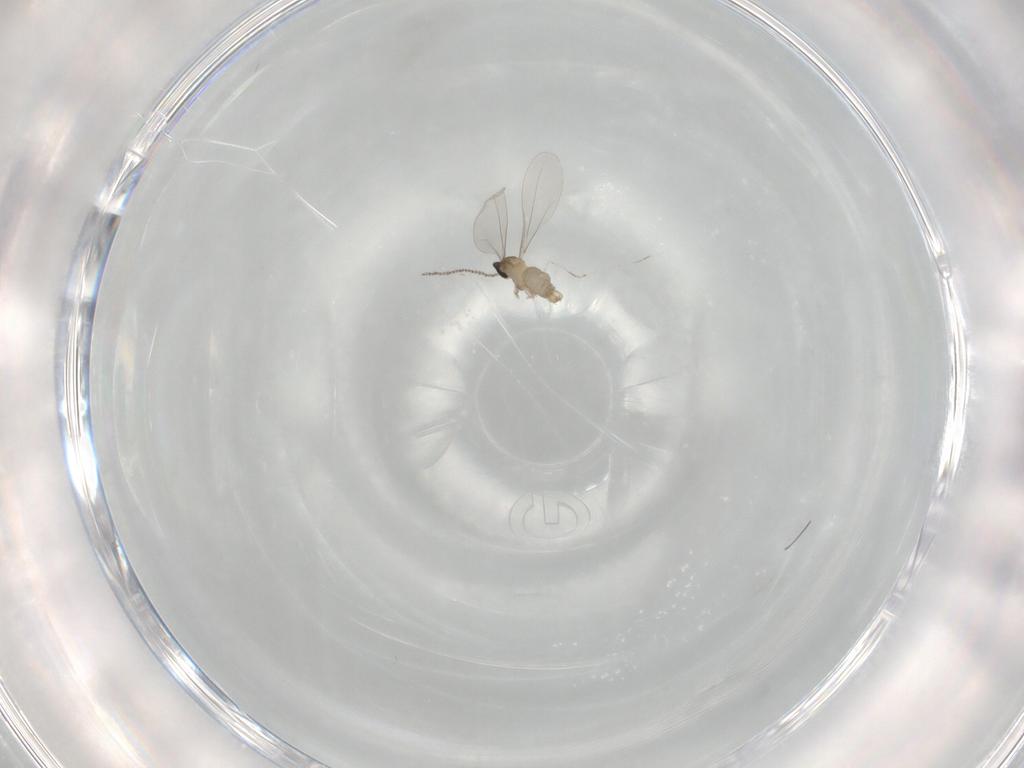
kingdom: Animalia
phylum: Arthropoda
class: Insecta
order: Diptera
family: Cecidomyiidae
